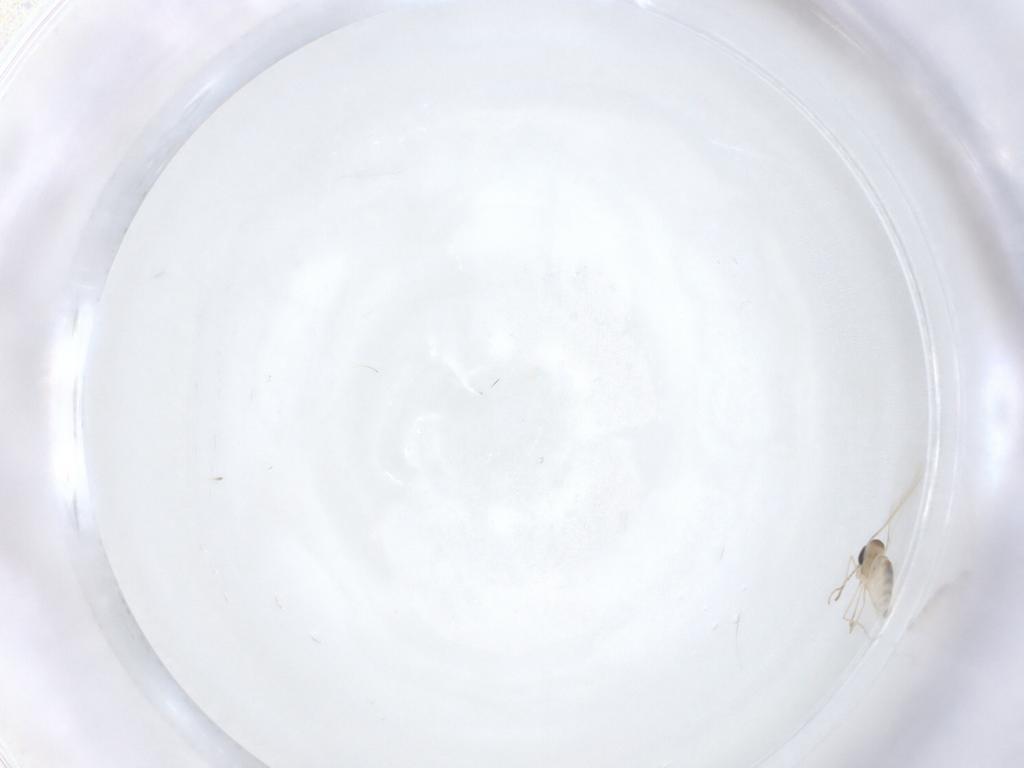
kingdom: Animalia
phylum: Arthropoda
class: Insecta
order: Diptera
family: Cecidomyiidae
